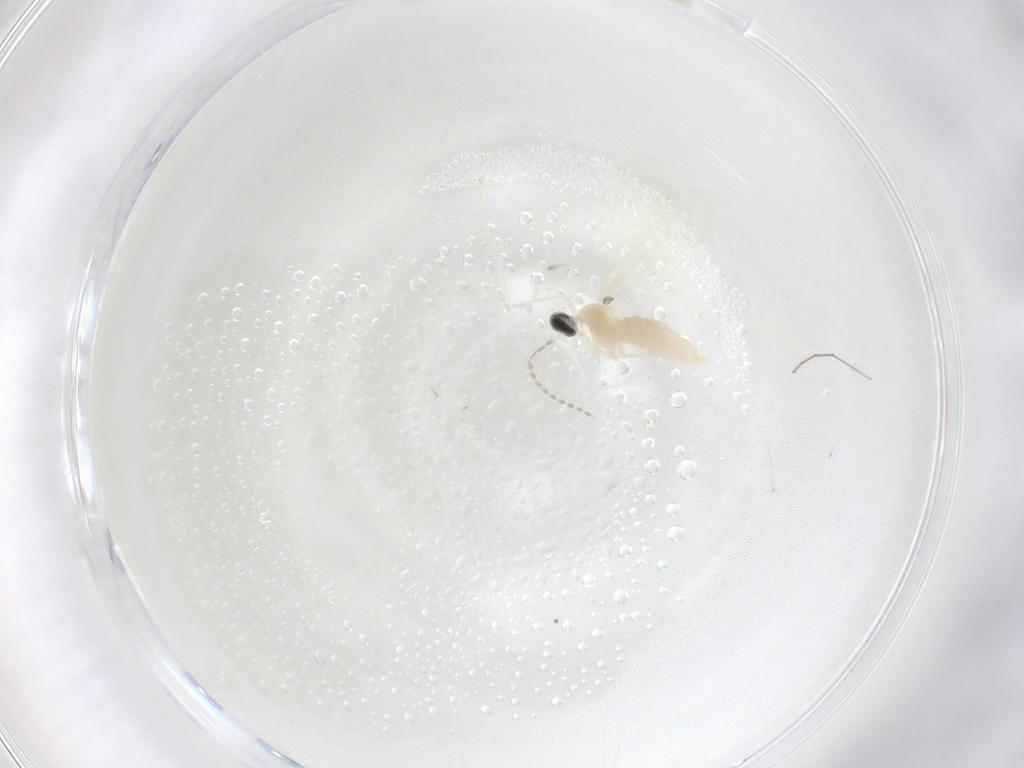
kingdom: Animalia
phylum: Arthropoda
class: Insecta
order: Diptera
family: Cecidomyiidae
